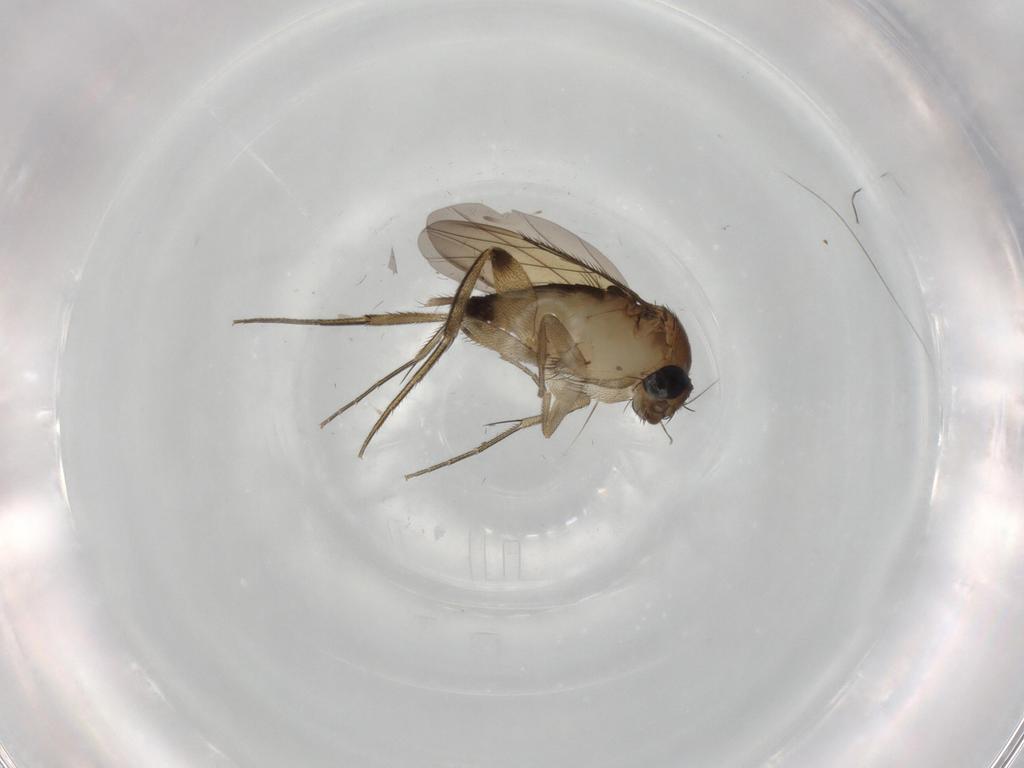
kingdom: Animalia
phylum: Arthropoda
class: Insecta
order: Diptera
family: Phoridae
